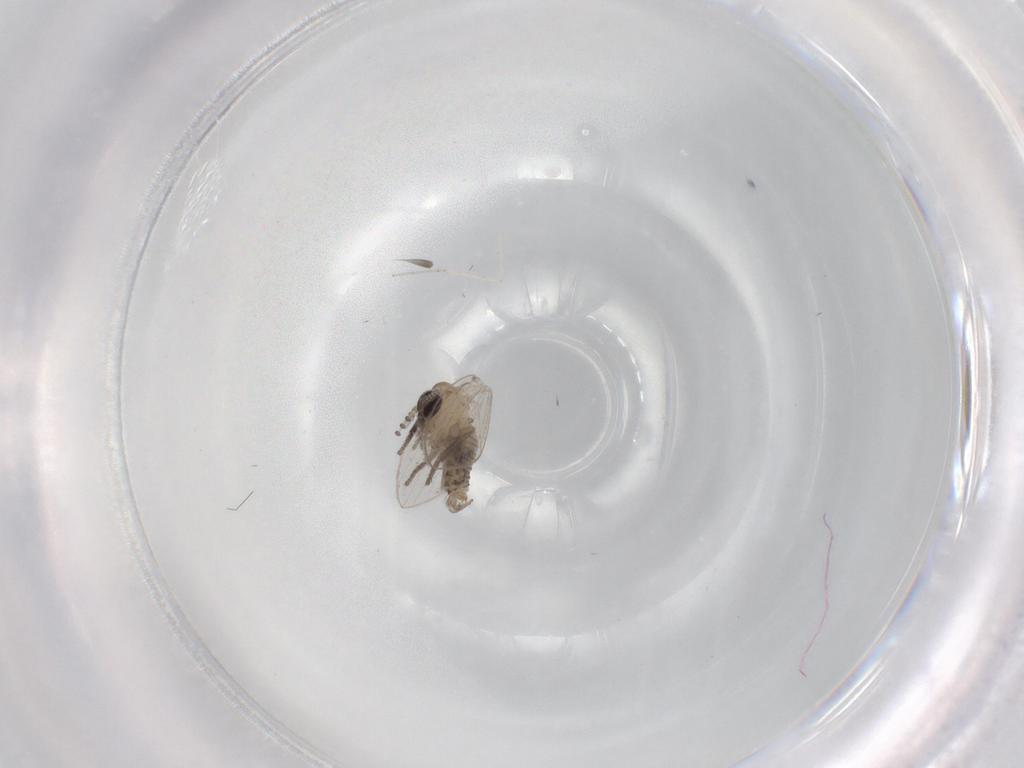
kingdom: Animalia
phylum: Arthropoda
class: Insecta
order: Diptera
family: Psychodidae
